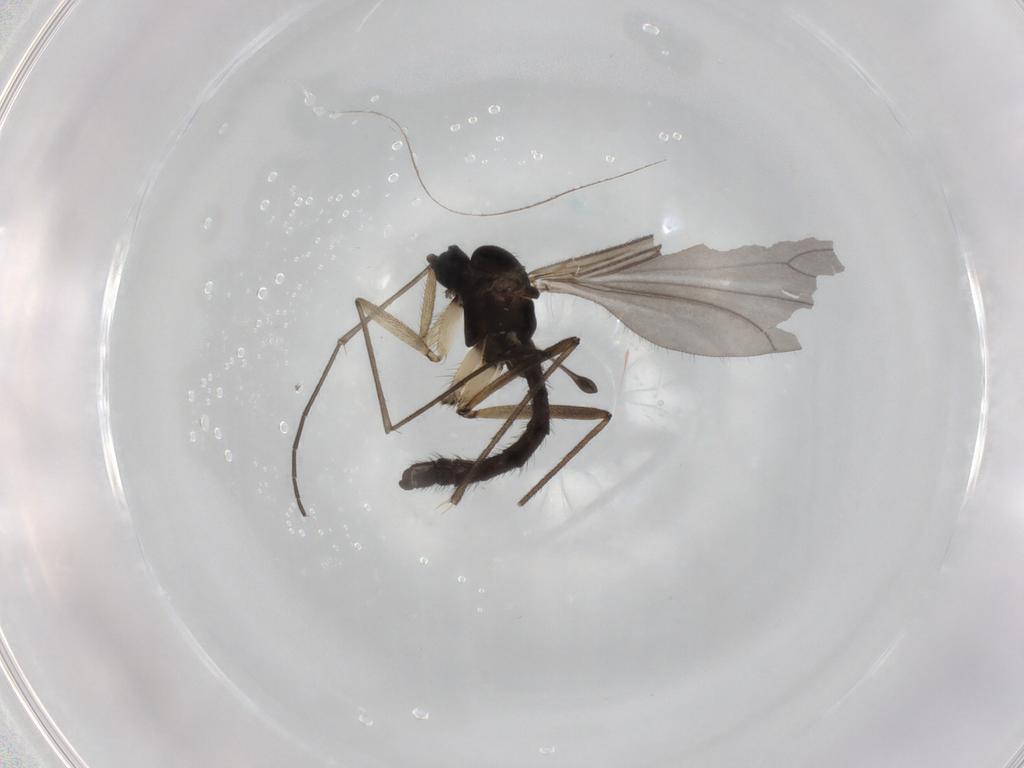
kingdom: Animalia
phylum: Arthropoda
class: Insecta
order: Diptera
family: Sciaridae
